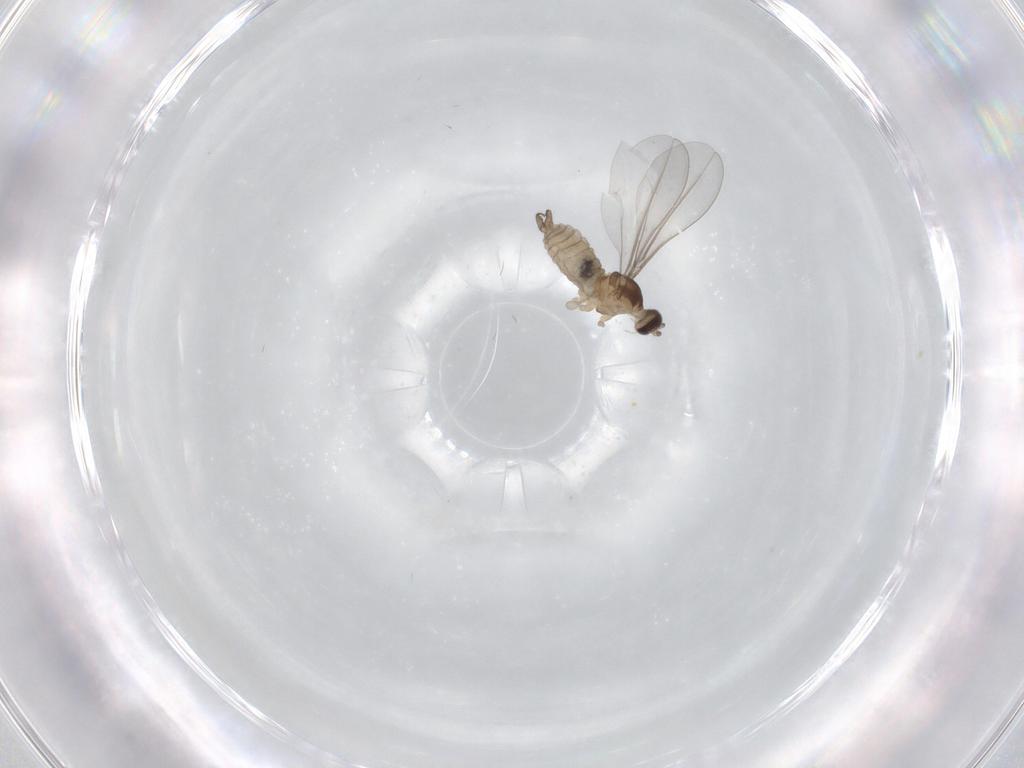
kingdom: Animalia
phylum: Arthropoda
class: Insecta
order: Diptera
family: Cecidomyiidae
